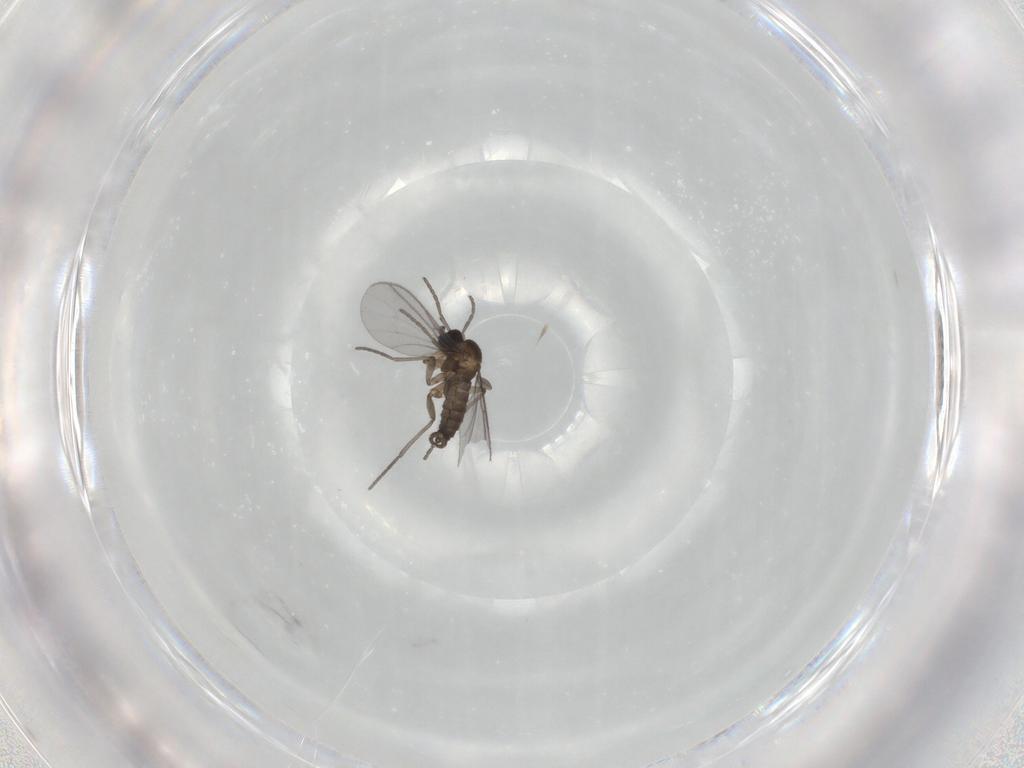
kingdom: Animalia
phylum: Arthropoda
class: Insecta
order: Diptera
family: Sciaridae
